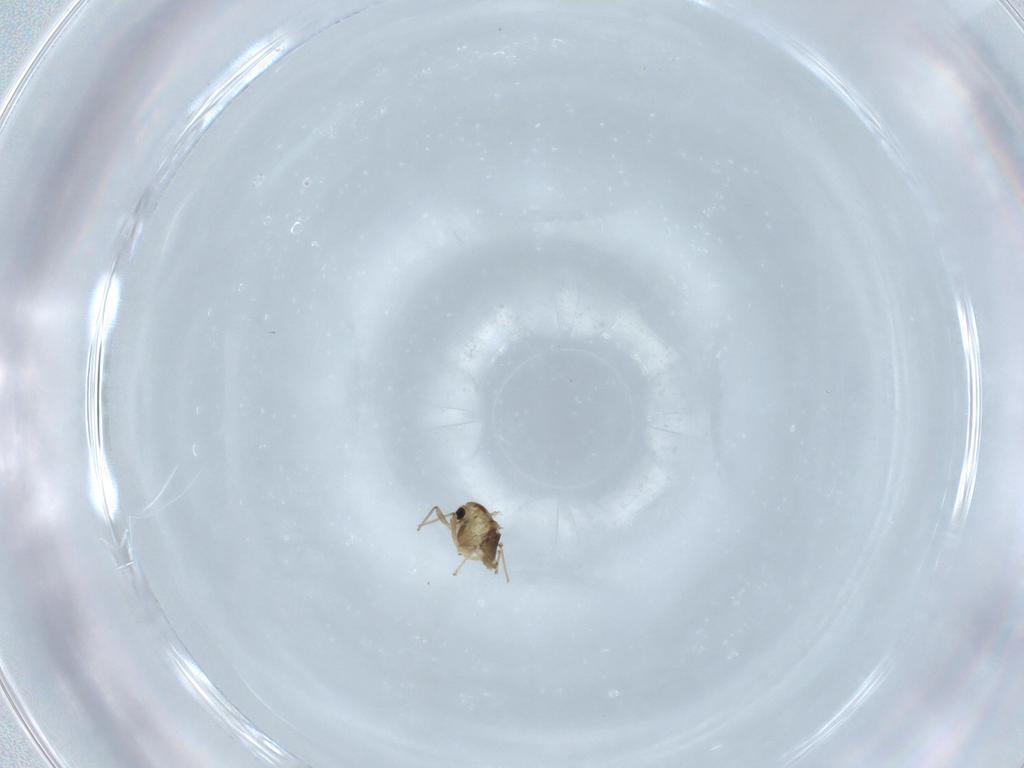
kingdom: Animalia
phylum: Arthropoda
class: Insecta
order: Diptera
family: Chironomidae
